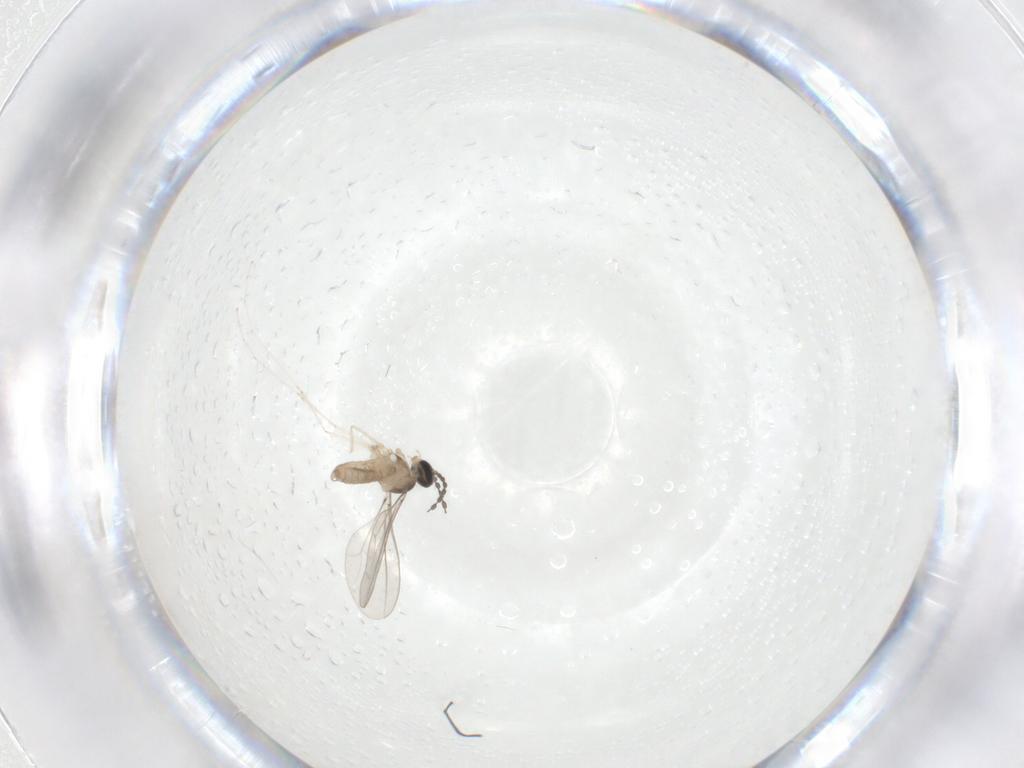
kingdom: Animalia
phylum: Arthropoda
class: Insecta
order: Diptera
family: Cecidomyiidae
